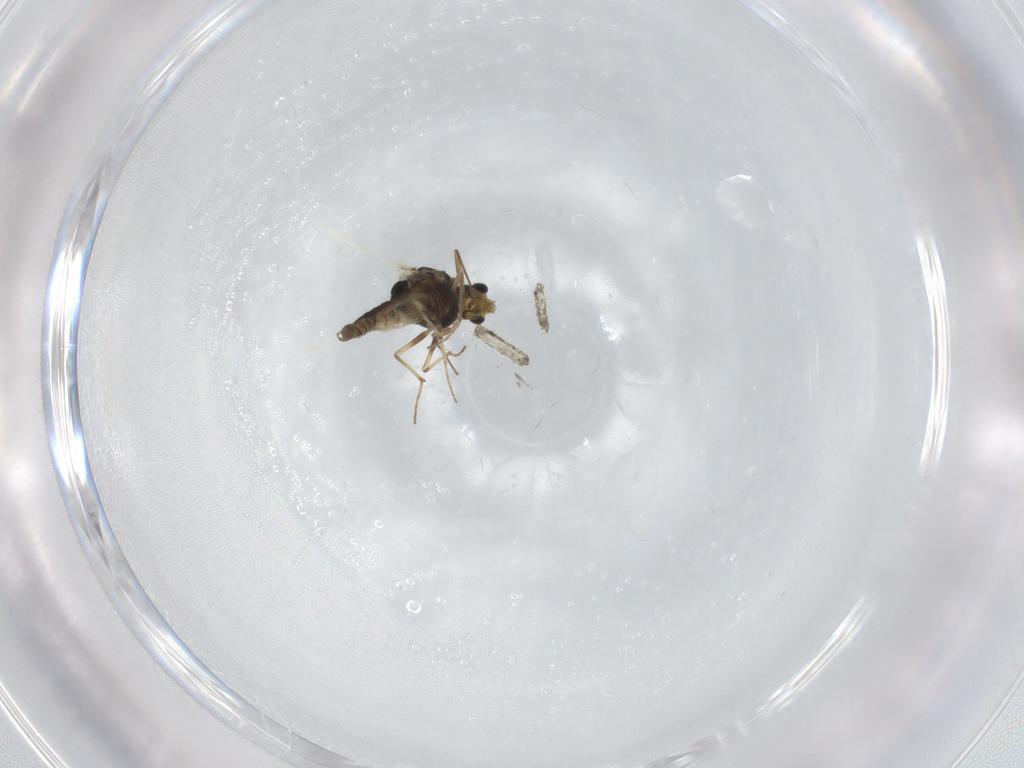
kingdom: Animalia
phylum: Arthropoda
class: Insecta
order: Diptera
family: Chironomidae
